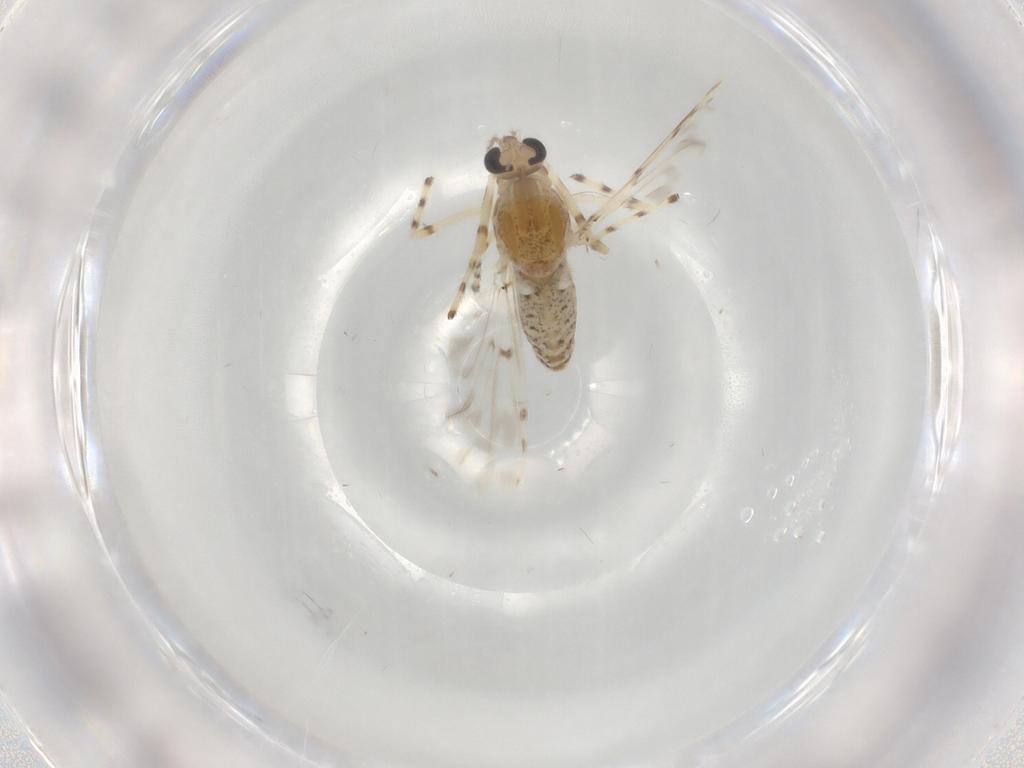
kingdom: Animalia
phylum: Arthropoda
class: Insecta
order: Diptera
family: Chironomidae
